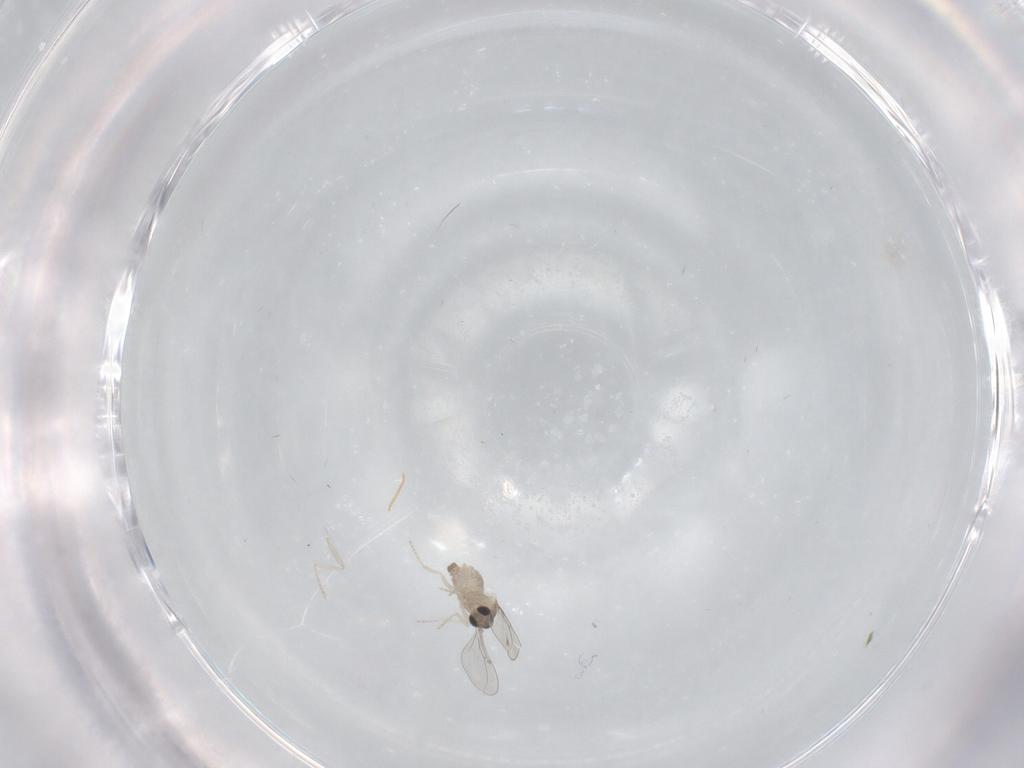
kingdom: Animalia
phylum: Arthropoda
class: Insecta
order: Diptera
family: Cecidomyiidae
